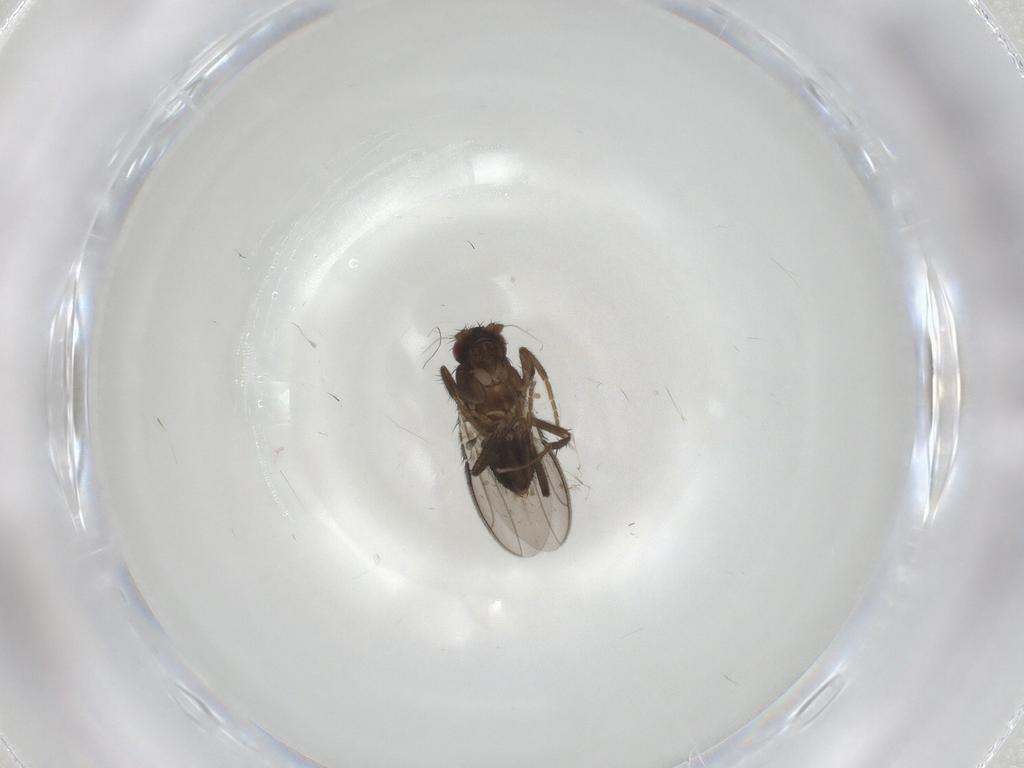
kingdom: Animalia
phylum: Arthropoda
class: Insecta
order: Diptera
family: Sphaeroceridae
